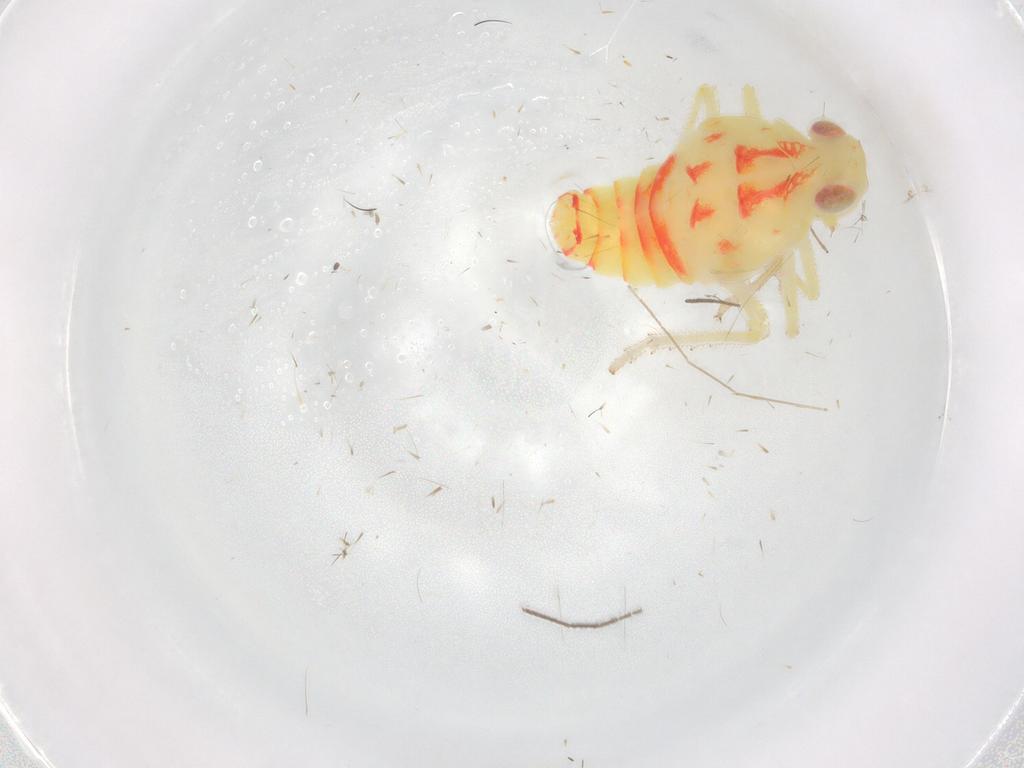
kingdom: Animalia
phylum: Arthropoda
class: Insecta
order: Hemiptera
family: Tropiduchidae
